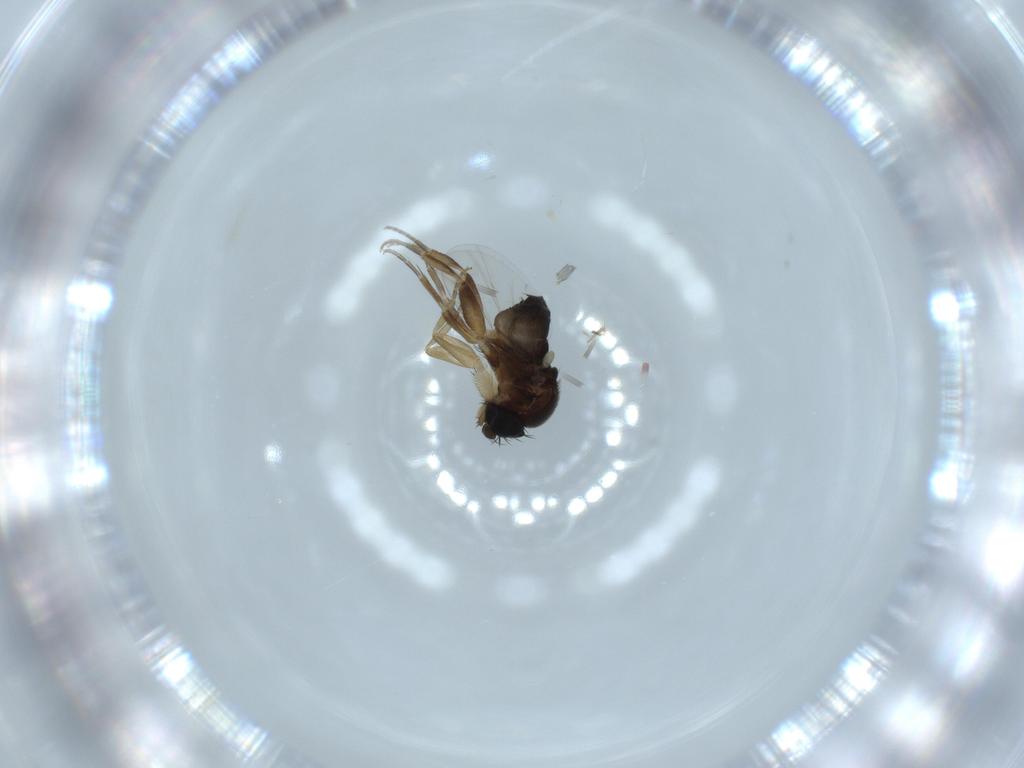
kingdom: Animalia
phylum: Arthropoda
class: Insecta
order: Diptera
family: Phoridae
